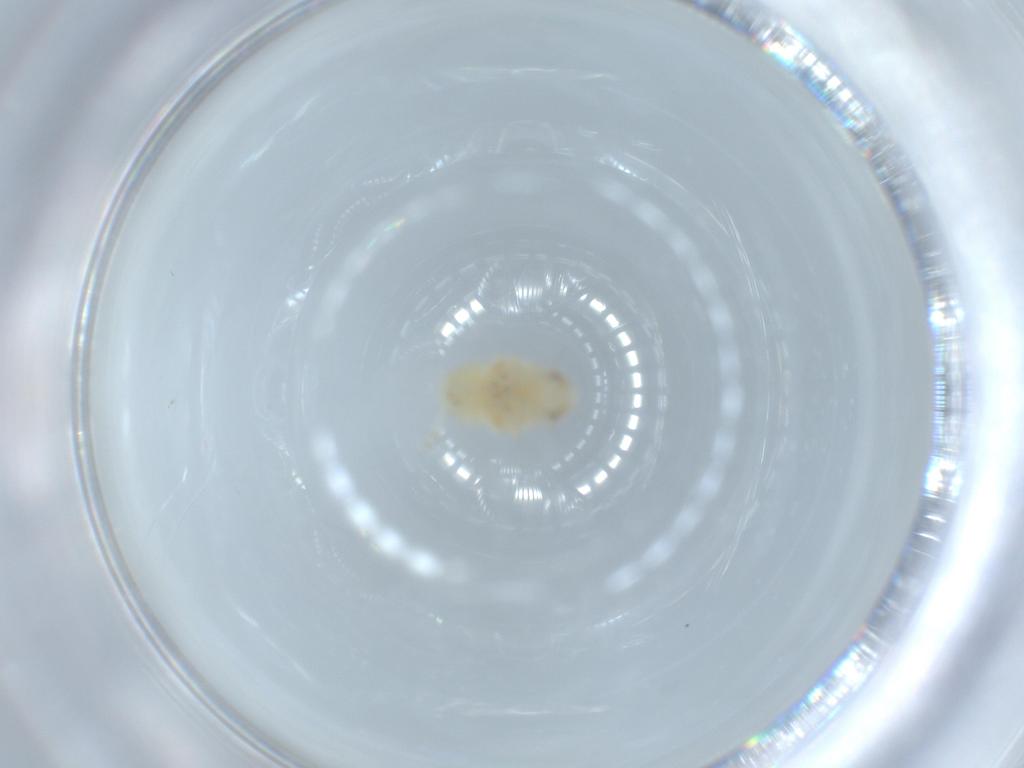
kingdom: Animalia
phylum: Arthropoda
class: Insecta
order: Hemiptera
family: Nogodinidae
